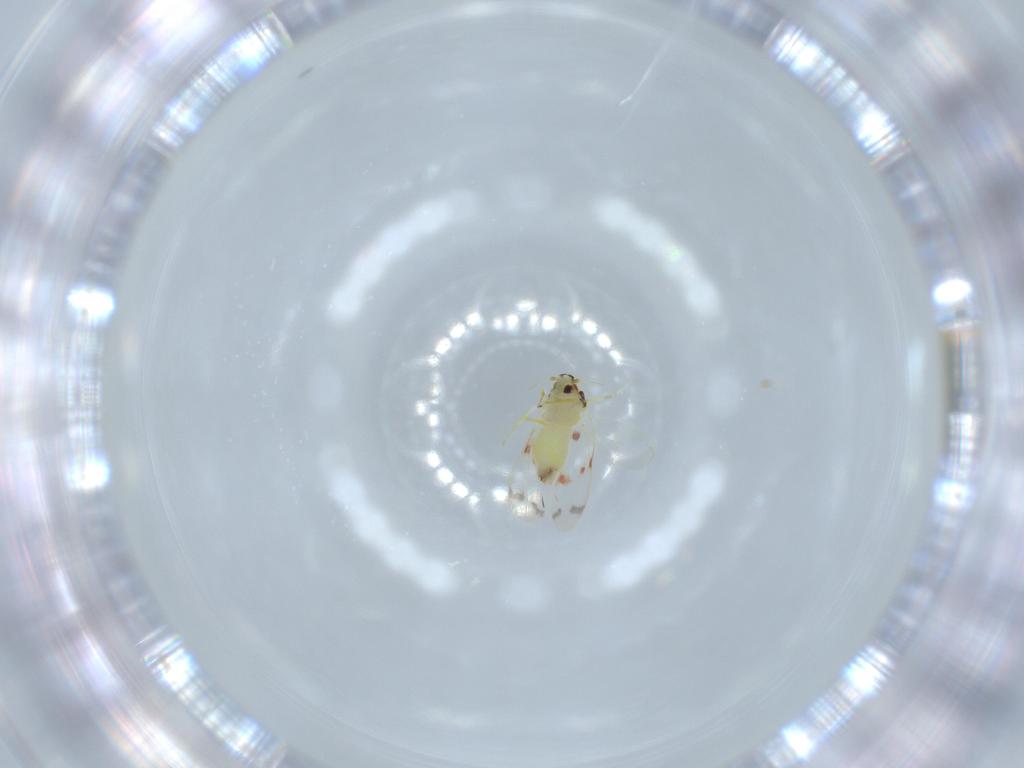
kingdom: Animalia
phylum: Arthropoda
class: Insecta
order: Hemiptera
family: Aleyrodidae
